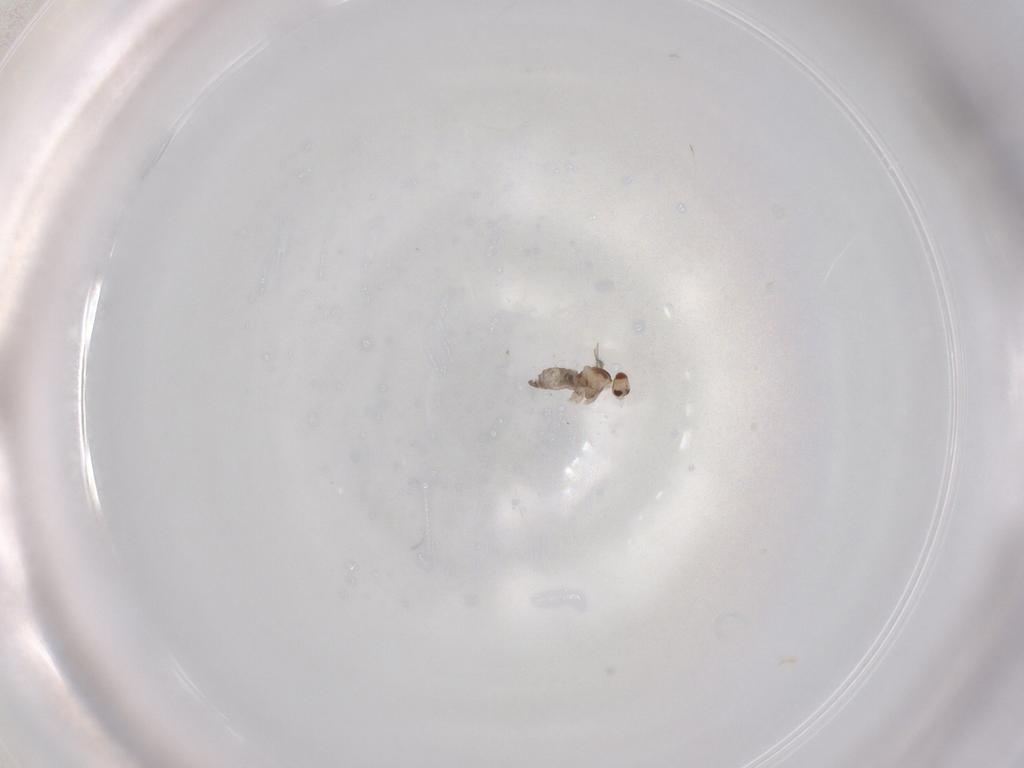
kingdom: Animalia
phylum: Arthropoda
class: Insecta
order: Diptera
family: Cecidomyiidae
